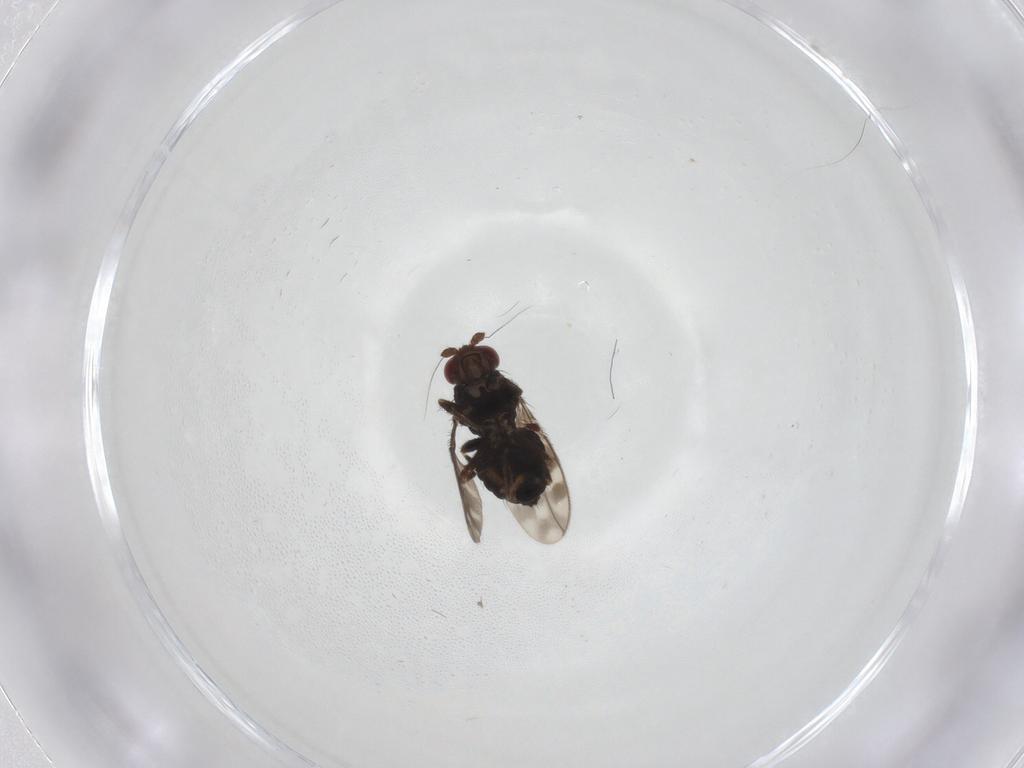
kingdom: Animalia
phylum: Arthropoda
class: Insecta
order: Diptera
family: Sphaeroceridae
